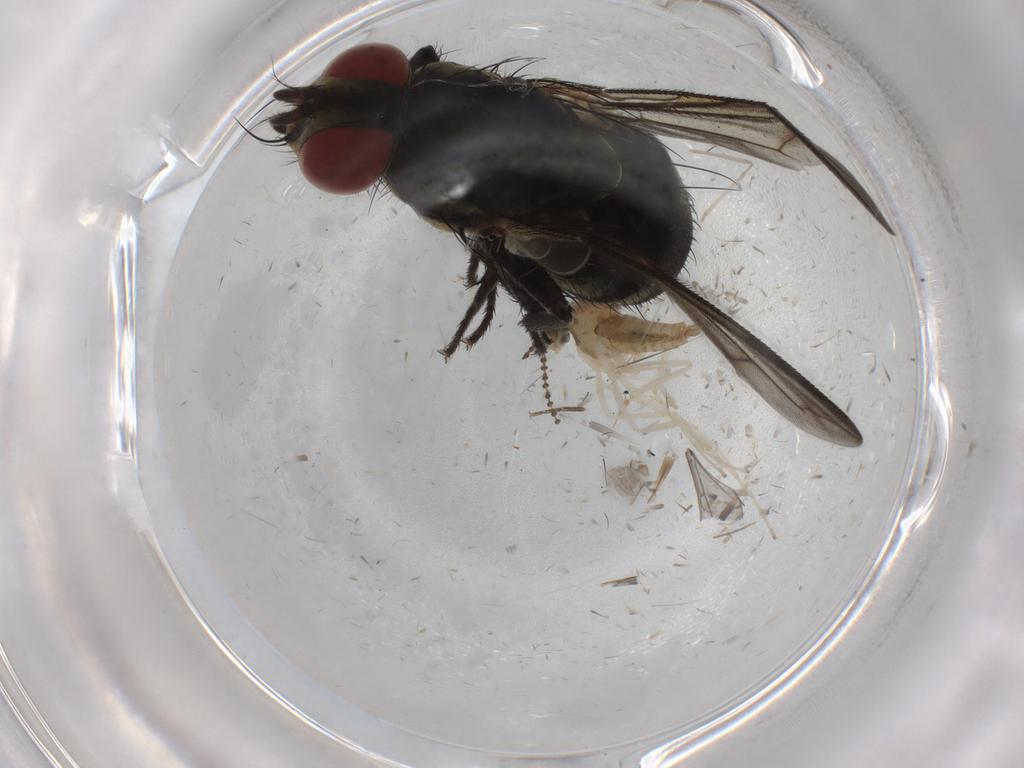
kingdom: Animalia
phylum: Arthropoda
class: Insecta
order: Diptera
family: Sarcophagidae
